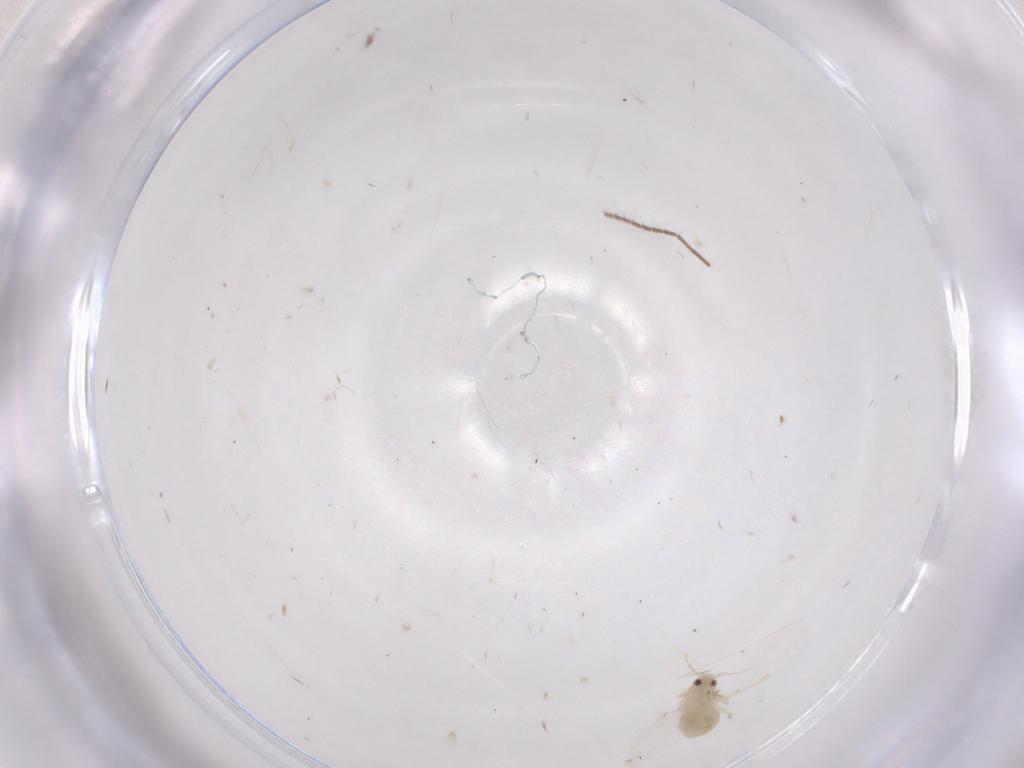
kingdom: Animalia
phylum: Arthropoda
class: Insecta
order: Hemiptera
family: Aleyrodidae
